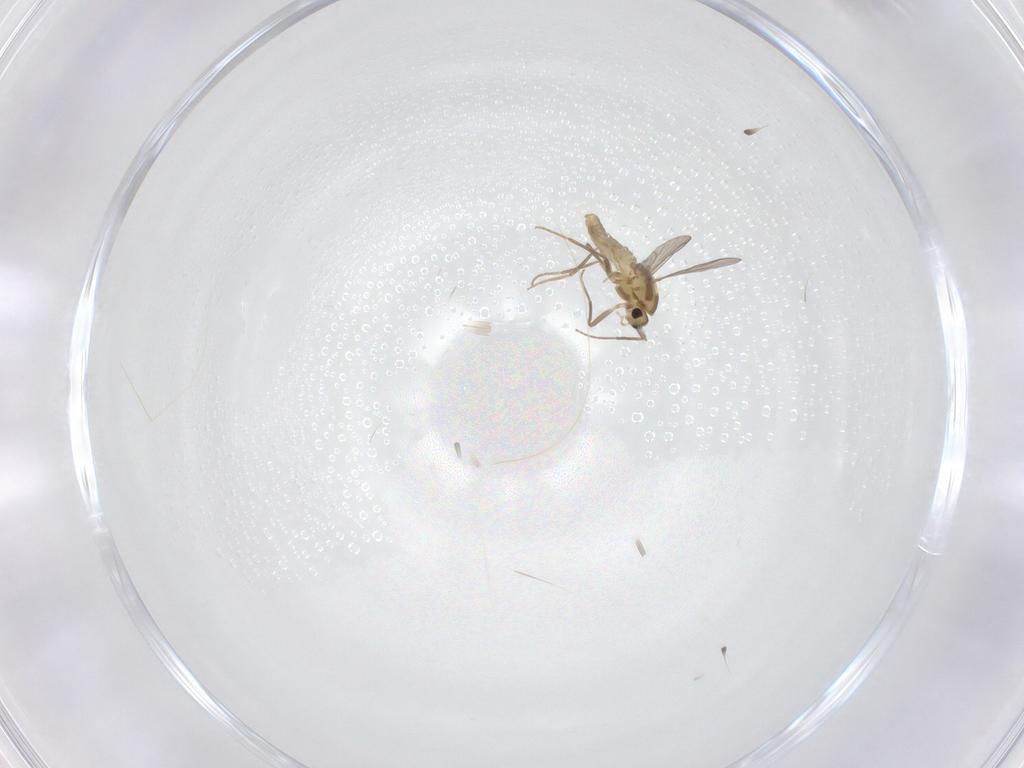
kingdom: Animalia
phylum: Arthropoda
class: Insecta
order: Diptera
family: Chironomidae
